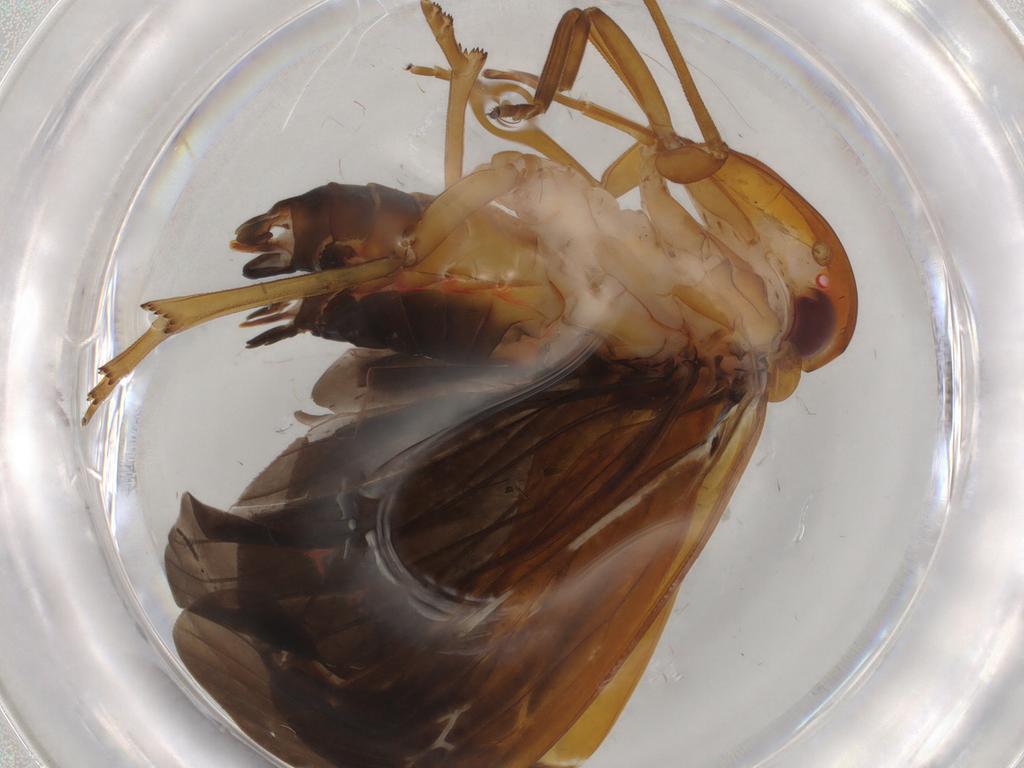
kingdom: Animalia
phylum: Arthropoda
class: Insecta
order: Hemiptera
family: Achilidae
